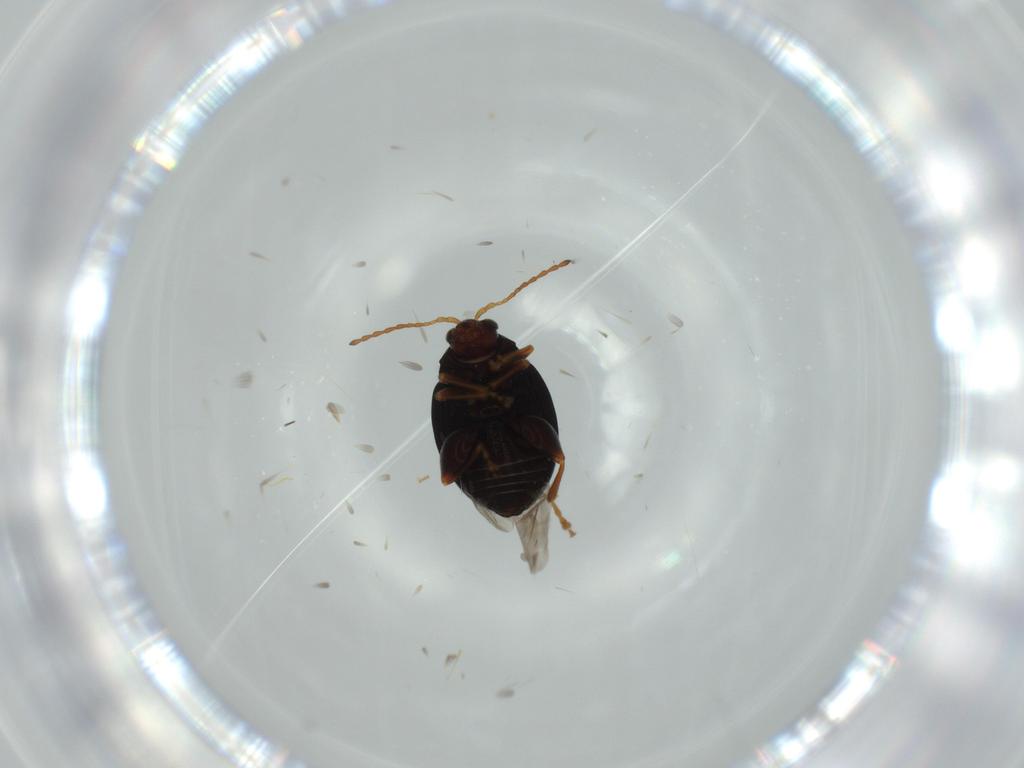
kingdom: Animalia
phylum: Arthropoda
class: Insecta
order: Coleoptera
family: Chrysomelidae
